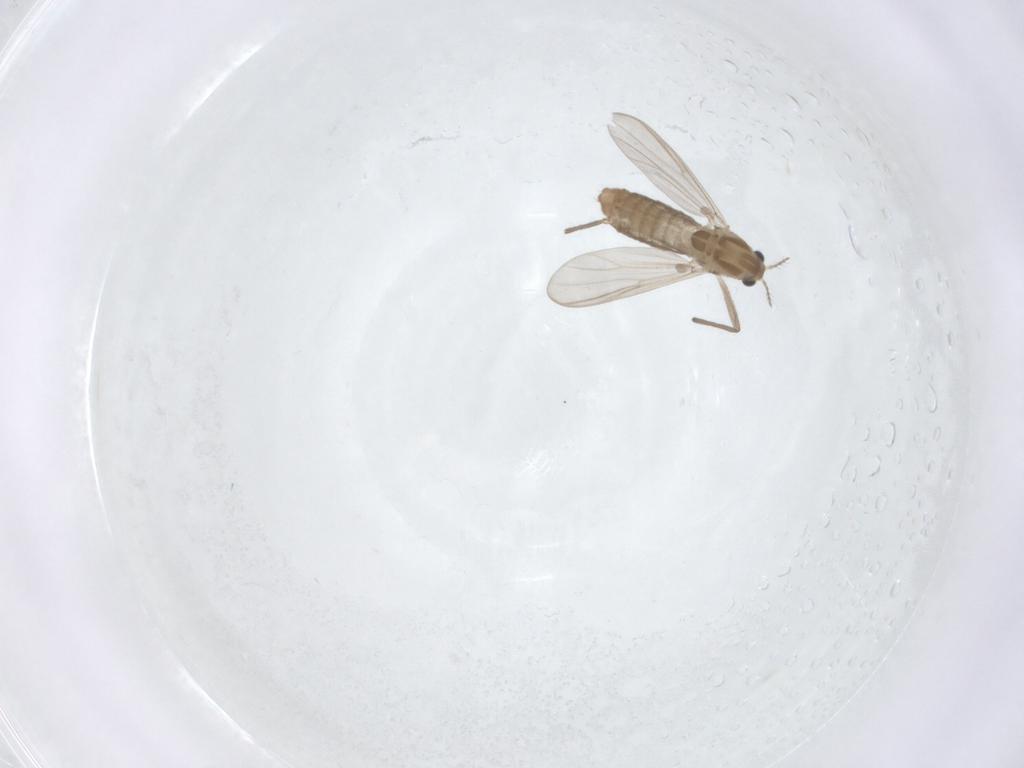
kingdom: Animalia
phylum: Arthropoda
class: Insecta
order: Diptera
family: Chironomidae
